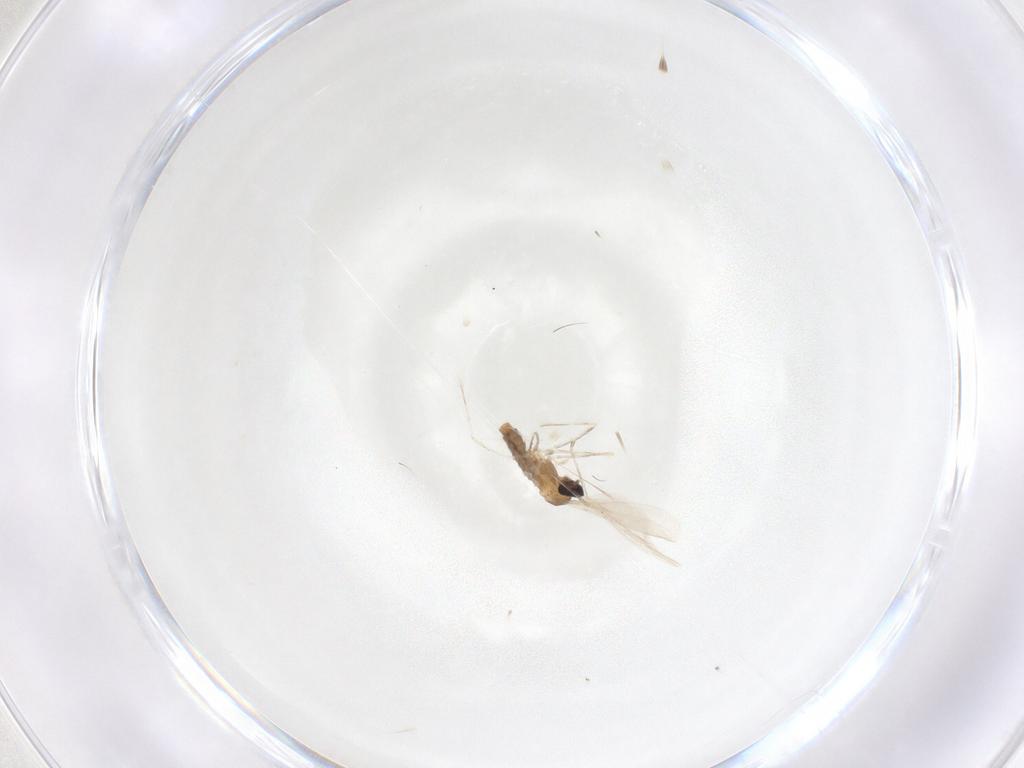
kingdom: Animalia
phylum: Arthropoda
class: Insecta
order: Diptera
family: Cecidomyiidae
